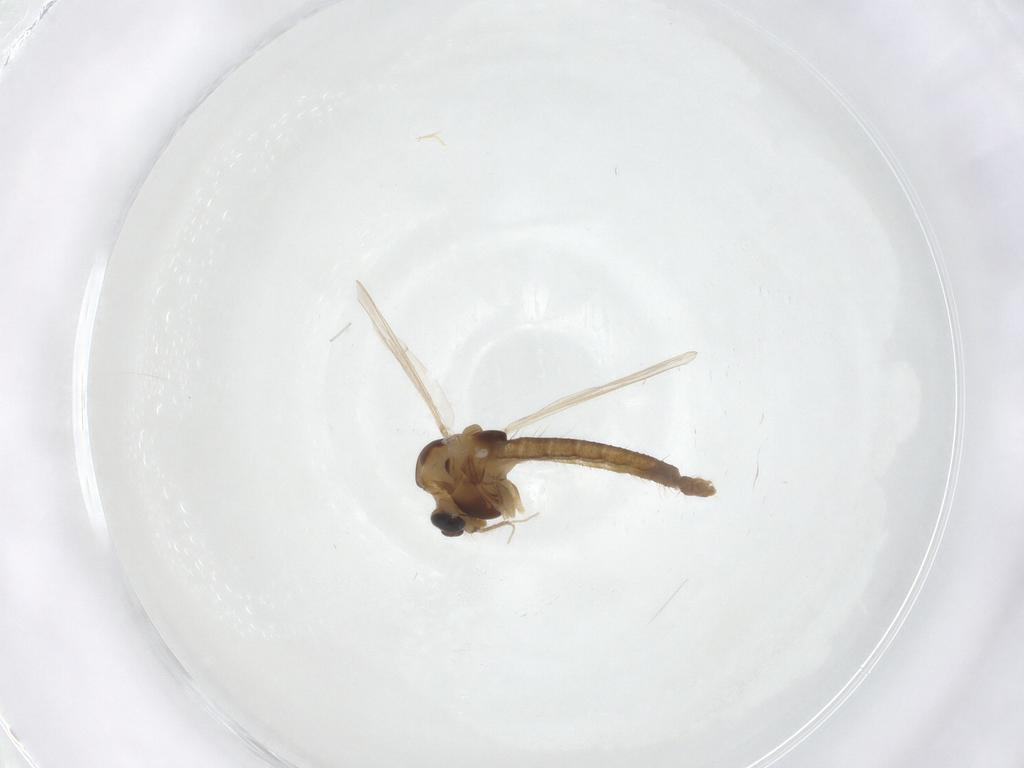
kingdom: Animalia
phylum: Arthropoda
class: Insecta
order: Diptera
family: Chironomidae
